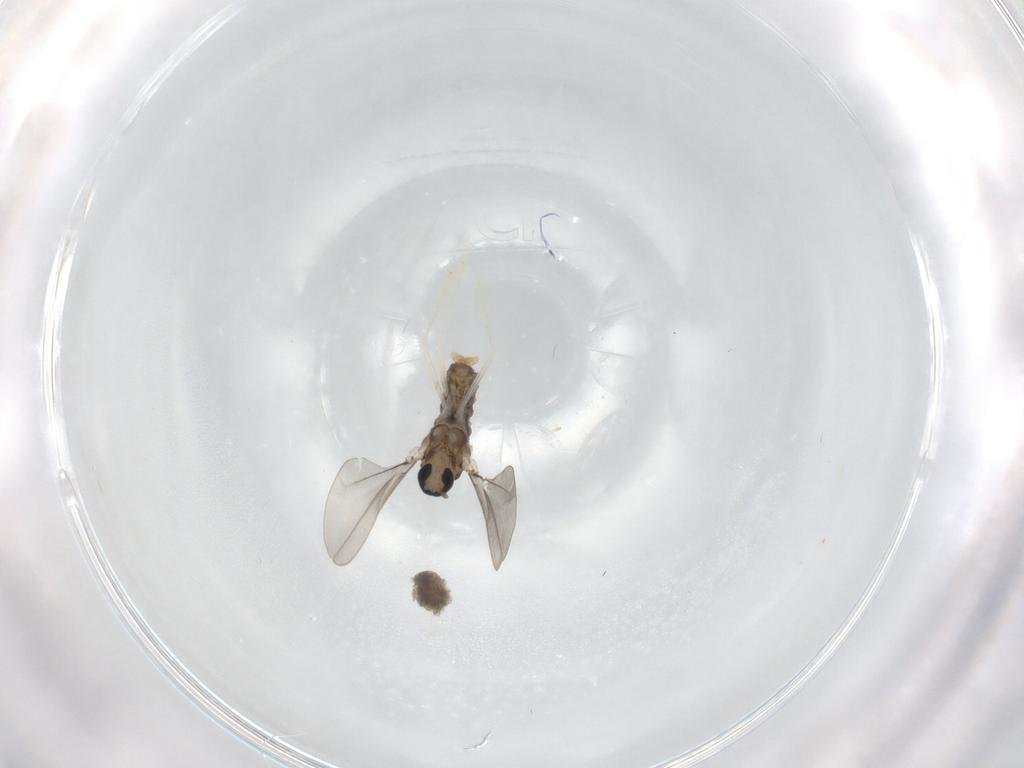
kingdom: Animalia
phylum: Arthropoda
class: Insecta
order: Diptera
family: Cecidomyiidae
